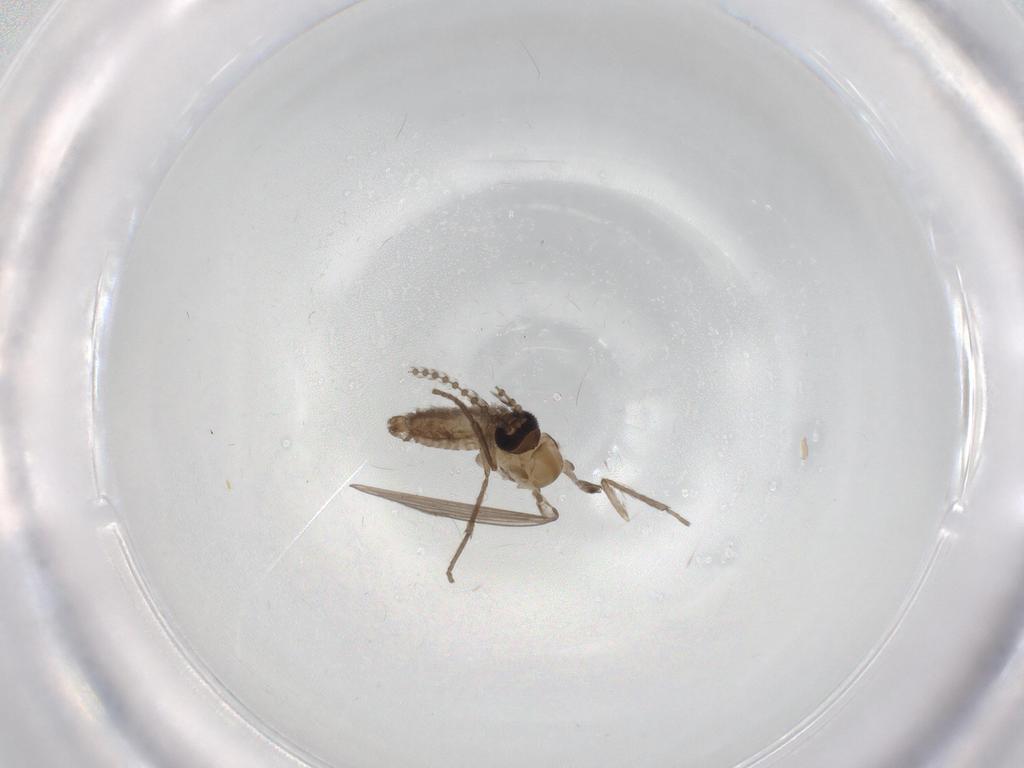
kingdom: Animalia
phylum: Arthropoda
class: Insecta
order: Diptera
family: Psychodidae
